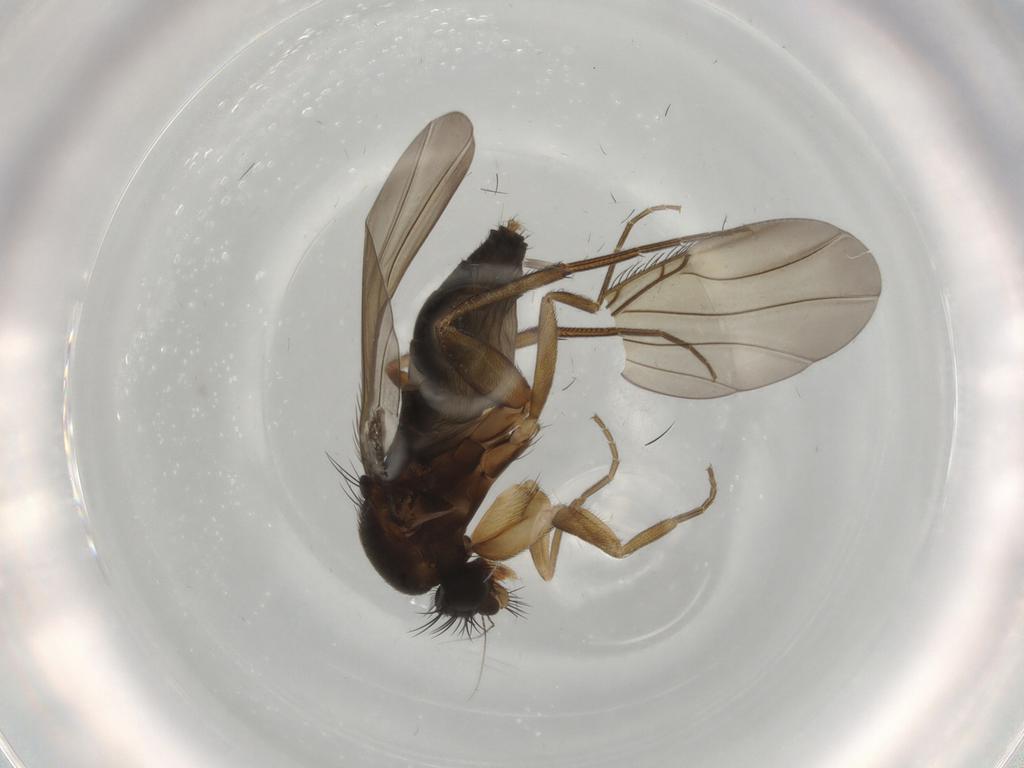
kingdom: Animalia
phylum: Arthropoda
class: Insecta
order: Diptera
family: Phoridae
